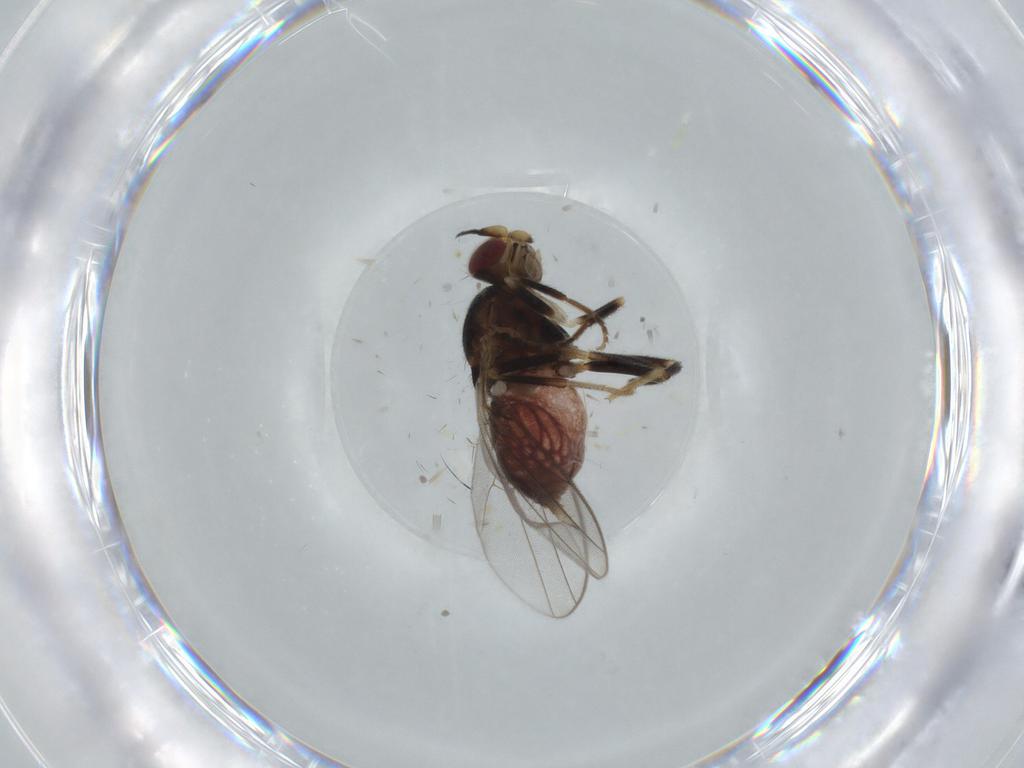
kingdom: Animalia
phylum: Arthropoda
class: Insecta
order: Diptera
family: Chloropidae
